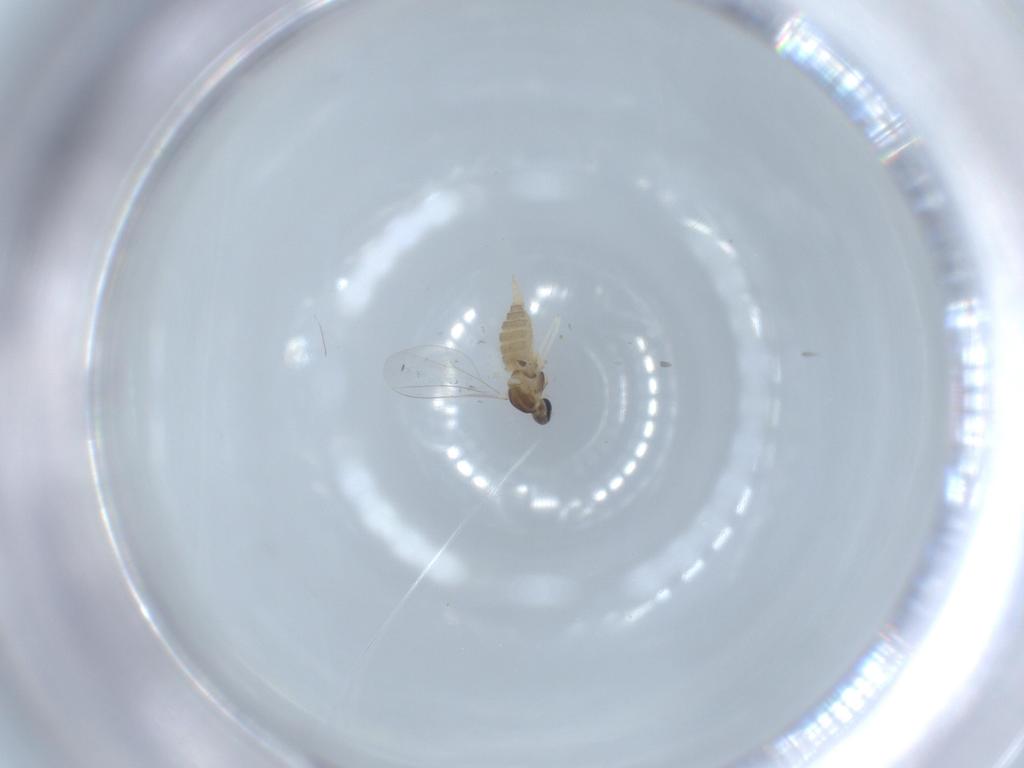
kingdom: Animalia
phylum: Arthropoda
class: Insecta
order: Diptera
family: Cecidomyiidae
